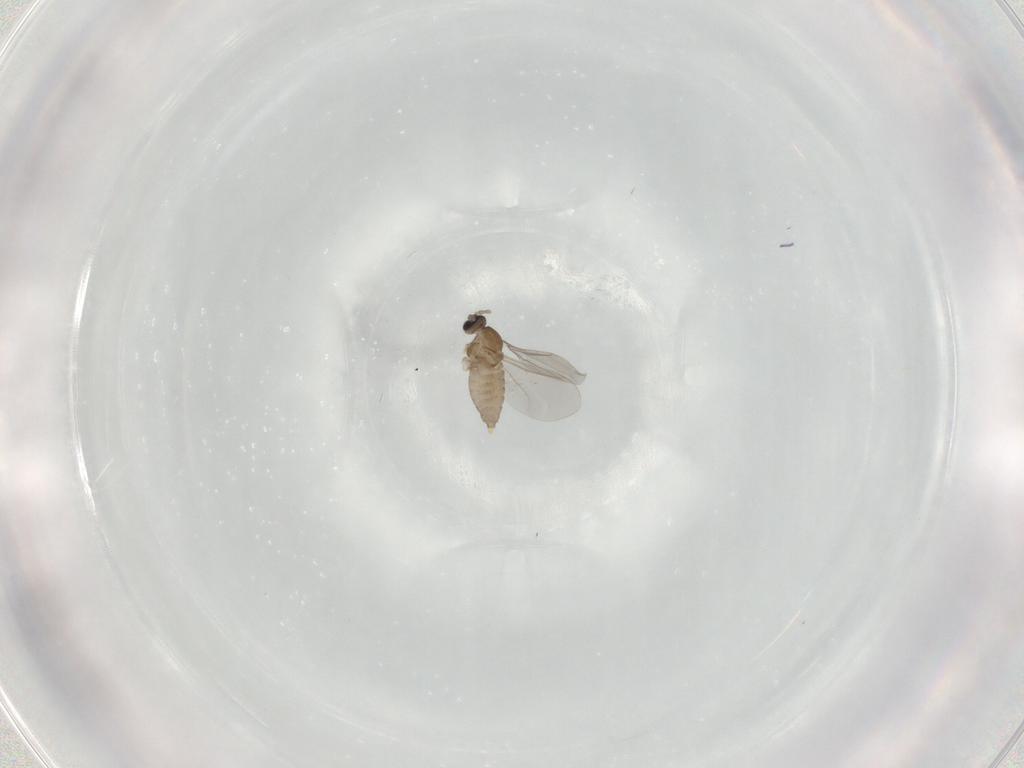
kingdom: Animalia
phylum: Arthropoda
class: Insecta
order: Diptera
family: Cecidomyiidae
